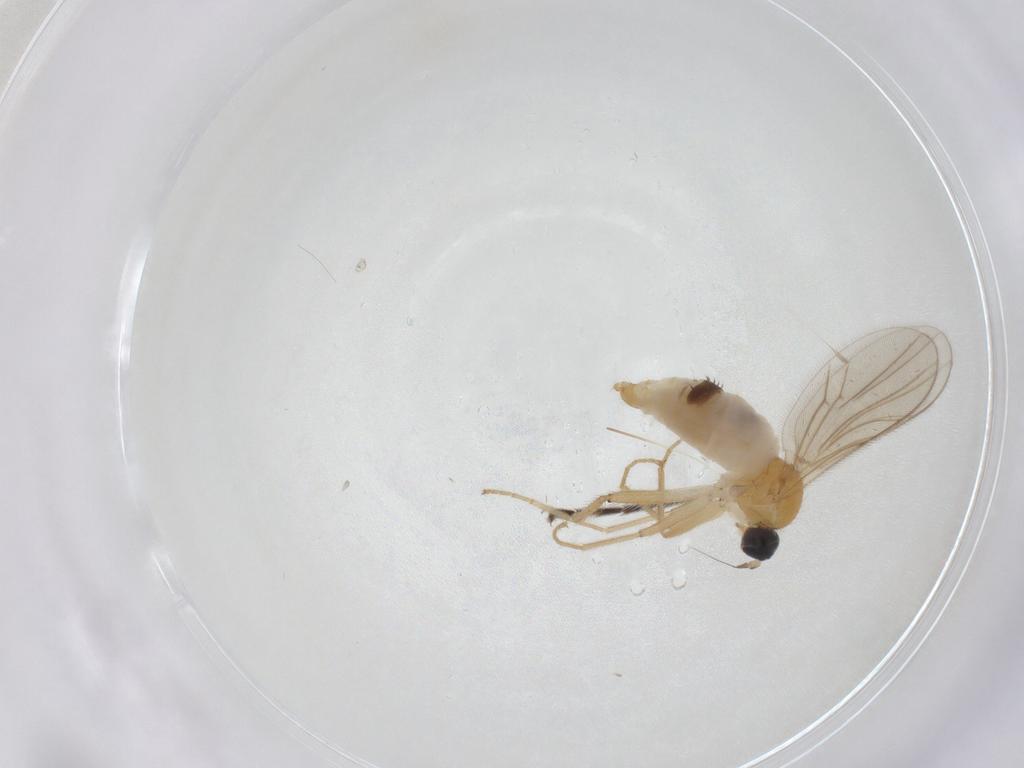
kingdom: Animalia
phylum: Arthropoda
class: Insecta
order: Diptera
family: Hybotidae
